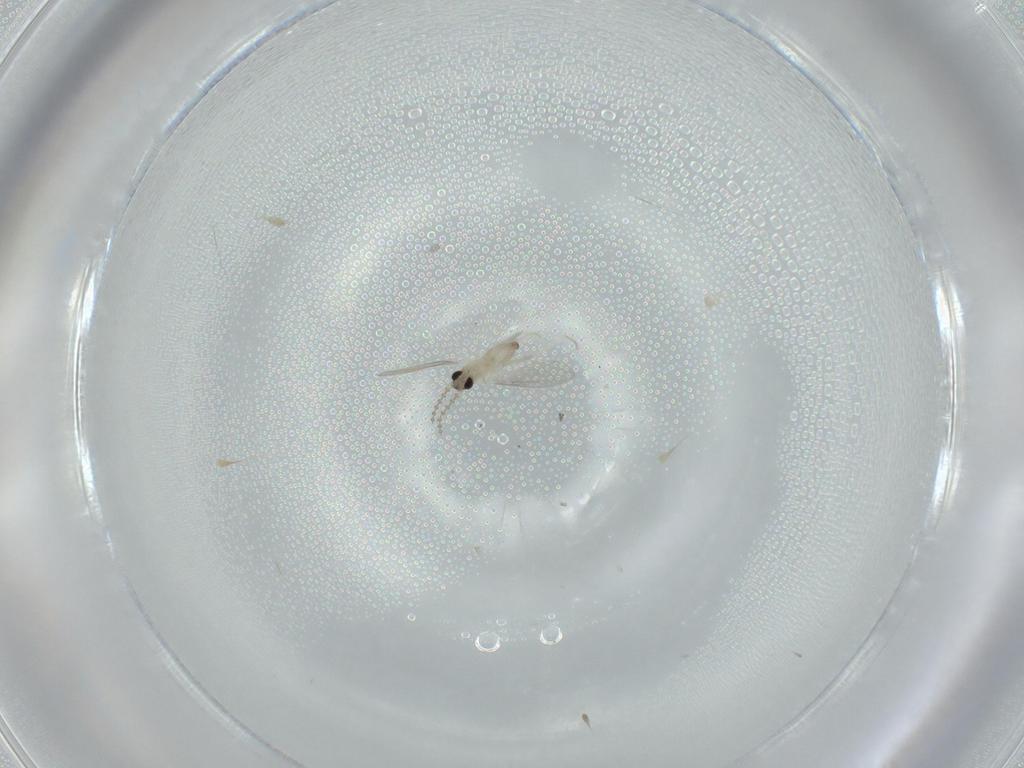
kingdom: Animalia
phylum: Arthropoda
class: Insecta
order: Diptera
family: Cecidomyiidae
